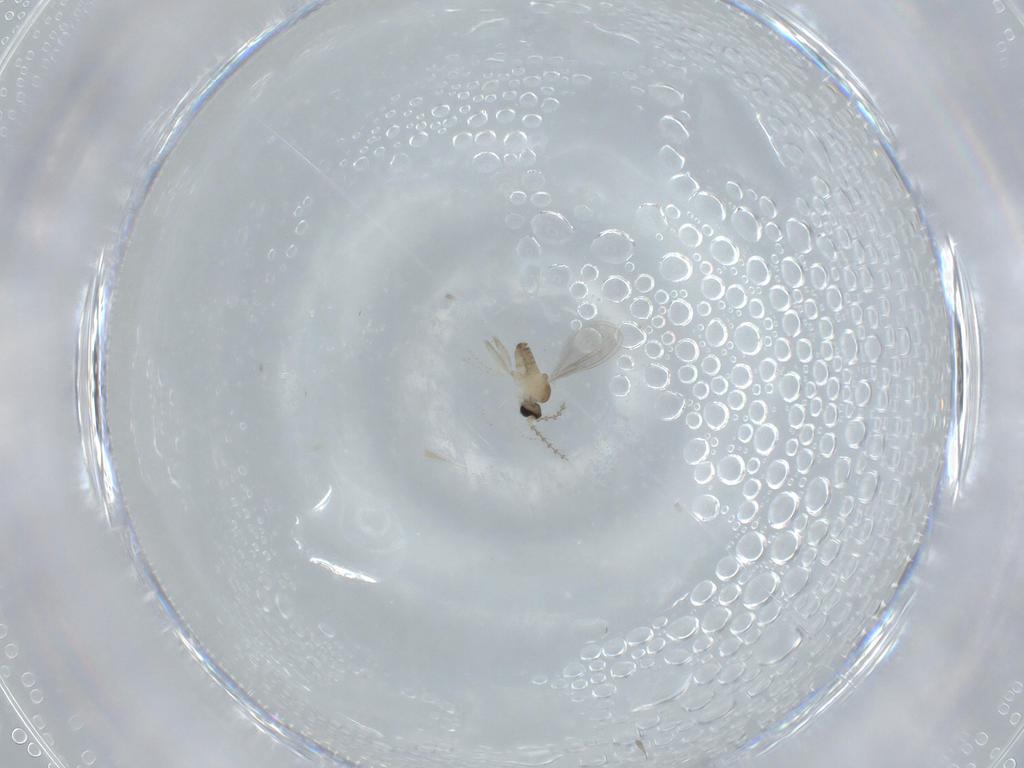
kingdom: Animalia
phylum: Arthropoda
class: Insecta
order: Diptera
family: Cecidomyiidae
